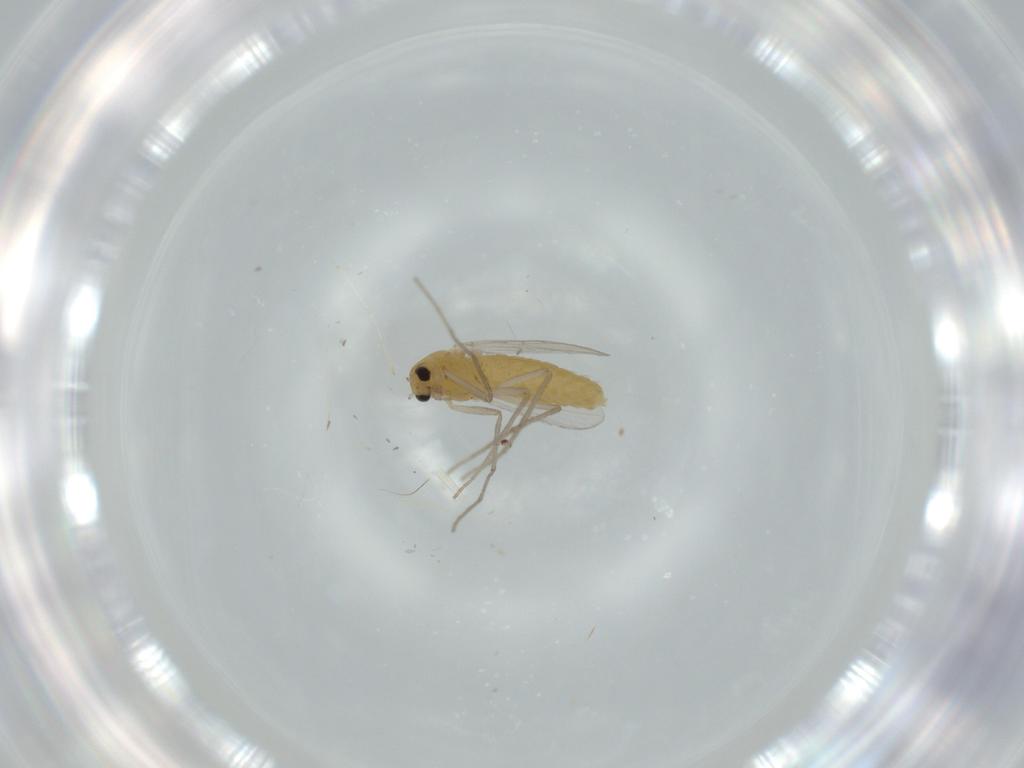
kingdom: Animalia
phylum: Arthropoda
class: Insecta
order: Diptera
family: Chironomidae
